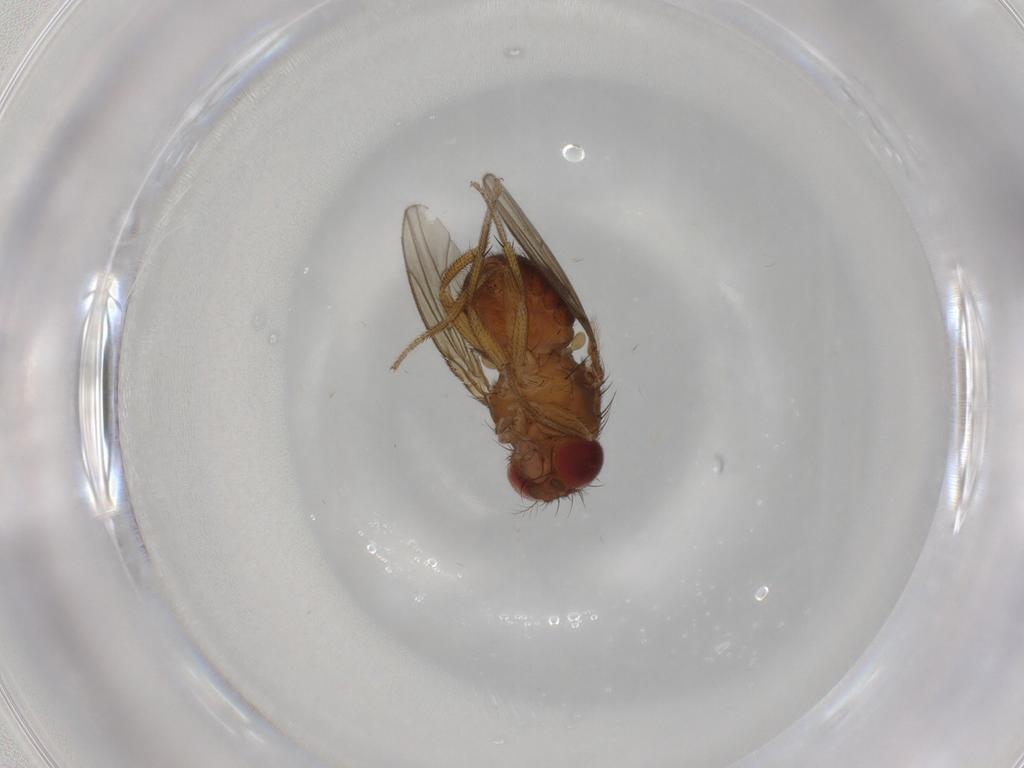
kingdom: Animalia
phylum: Arthropoda
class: Insecta
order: Diptera
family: Drosophilidae
